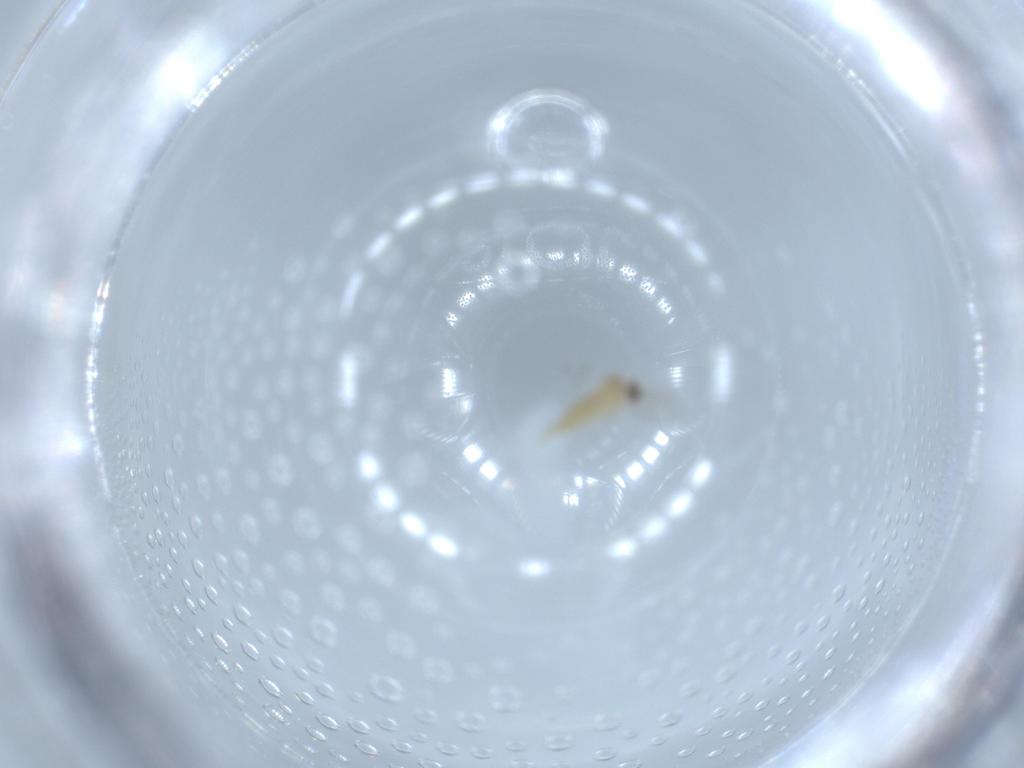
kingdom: Animalia
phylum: Arthropoda
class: Insecta
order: Diptera
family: Cecidomyiidae
